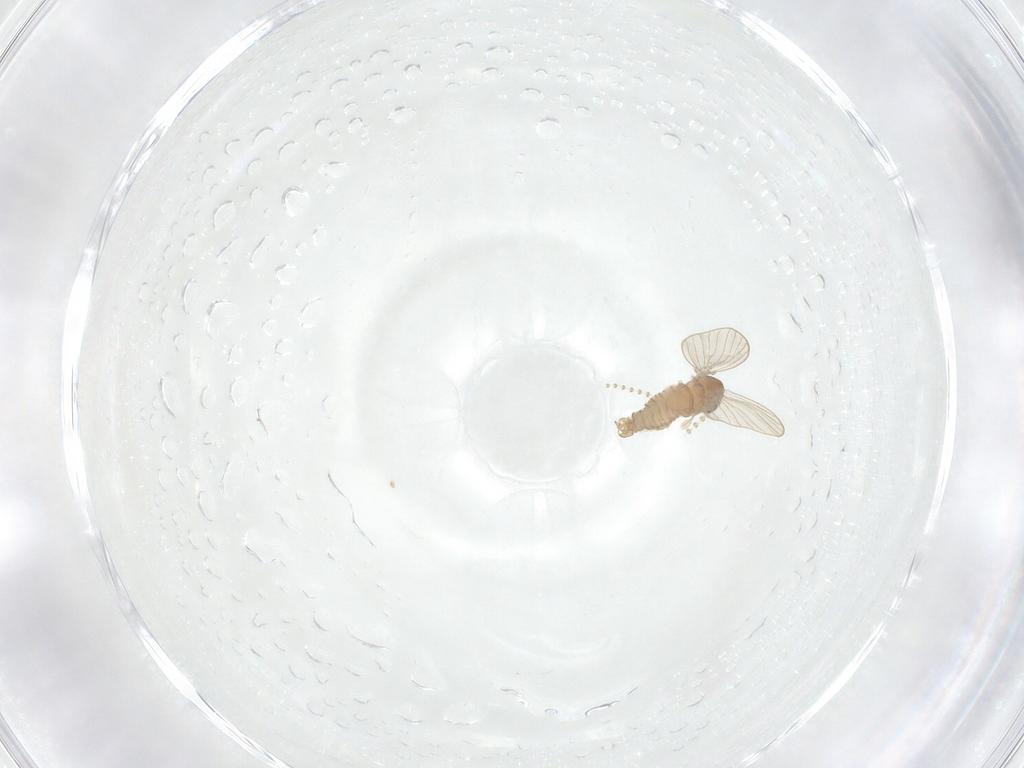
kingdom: Animalia
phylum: Arthropoda
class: Insecta
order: Diptera
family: Psychodidae
